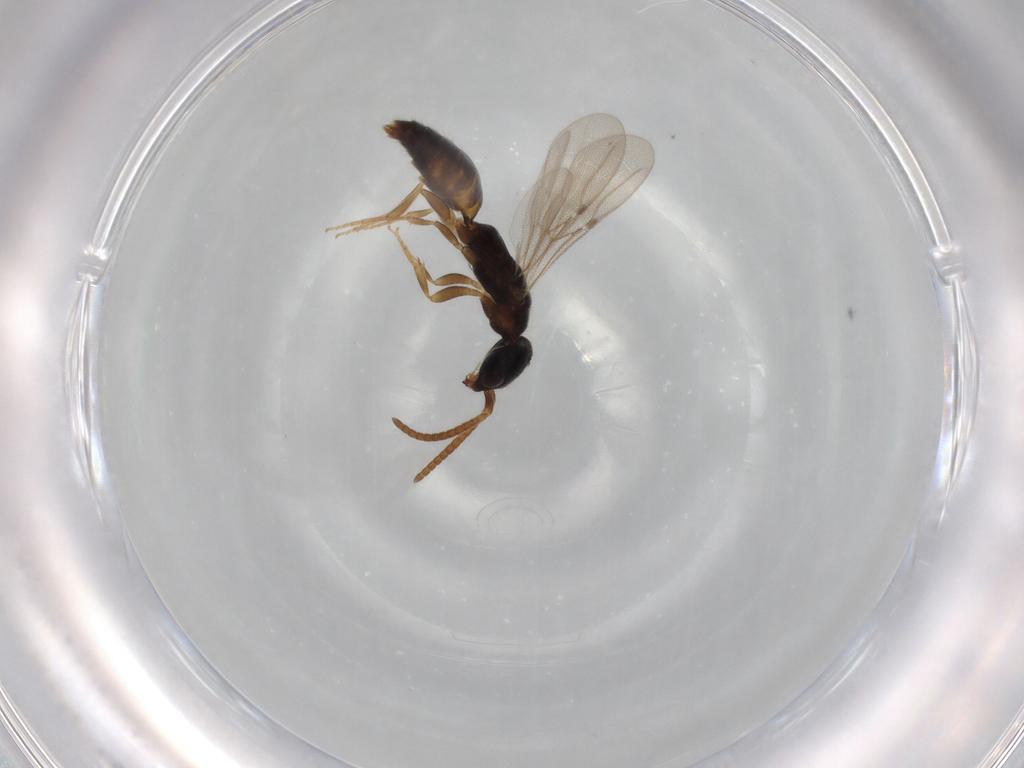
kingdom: Animalia
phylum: Arthropoda
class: Insecta
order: Hymenoptera
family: Bethylidae
